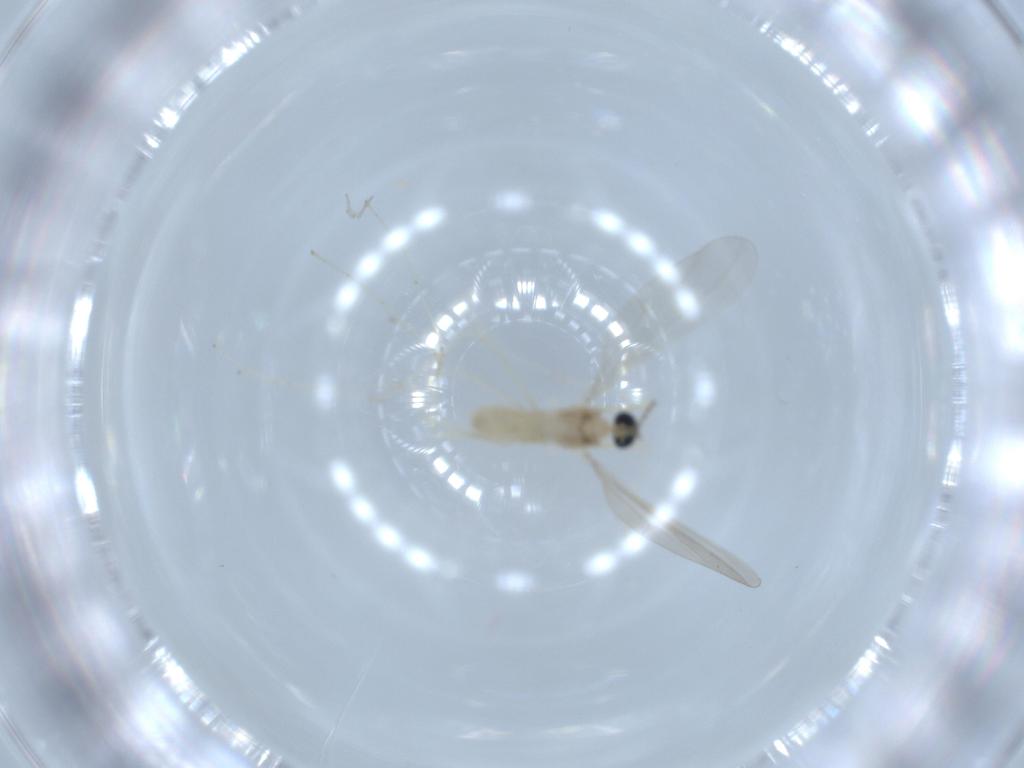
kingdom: Animalia
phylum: Arthropoda
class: Insecta
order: Diptera
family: Cecidomyiidae
